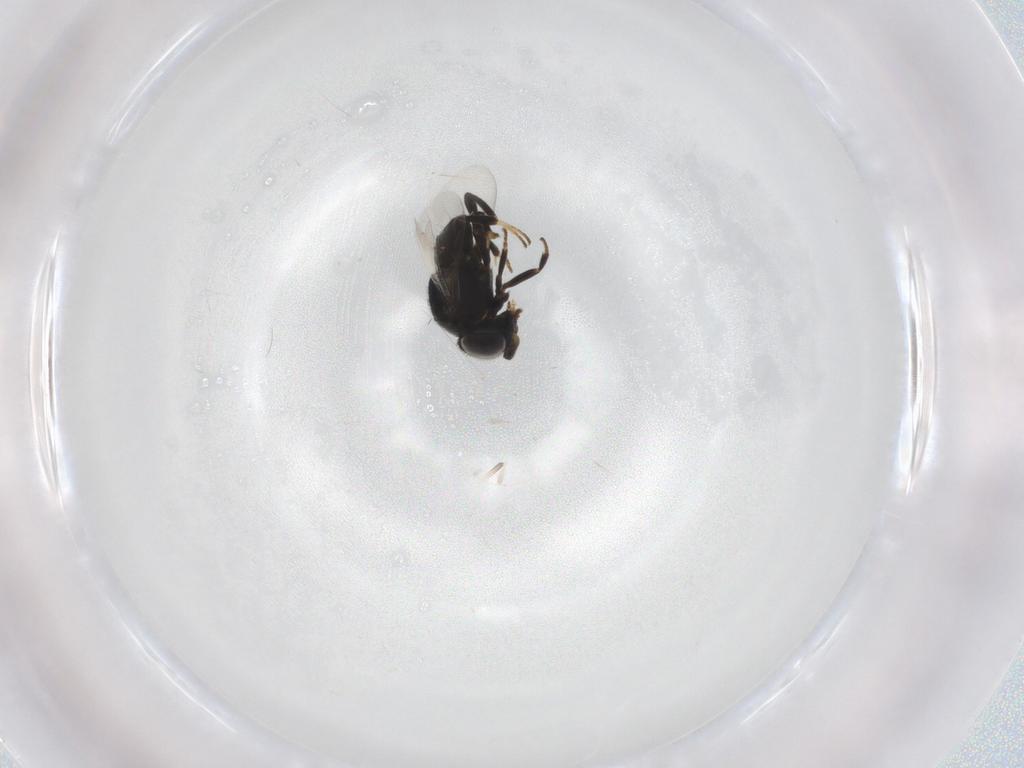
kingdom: Animalia
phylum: Arthropoda
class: Insecta
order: Hymenoptera
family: Encyrtidae
